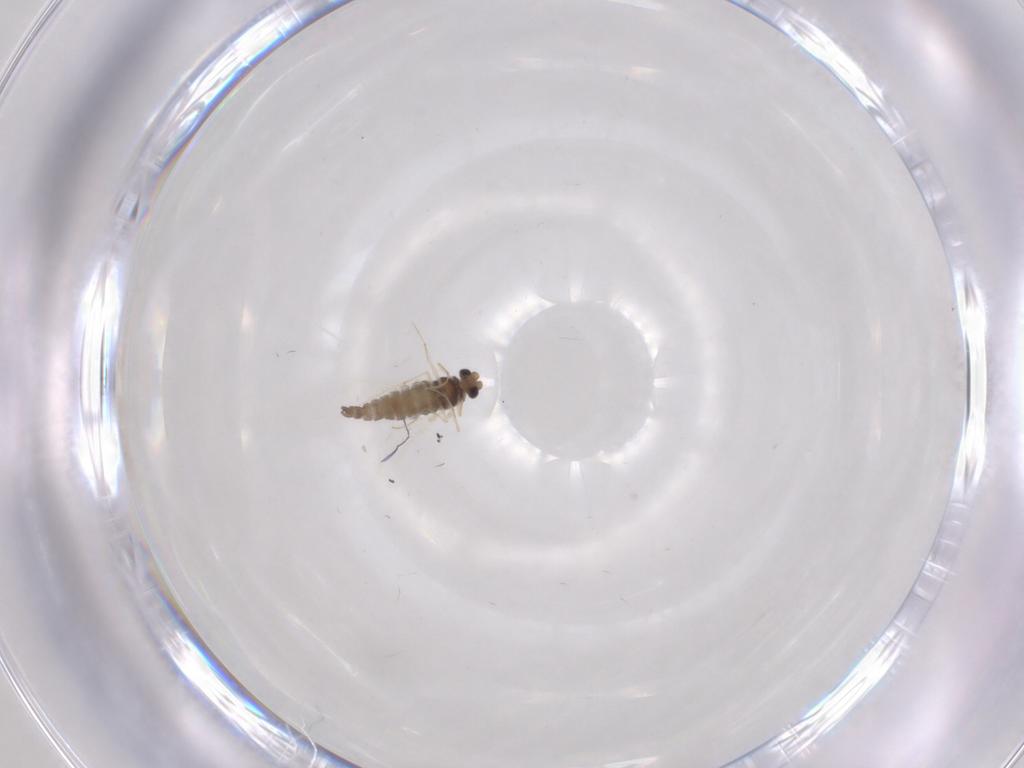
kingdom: Animalia
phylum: Arthropoda
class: Insecta
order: Diptera
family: Chironomidae
